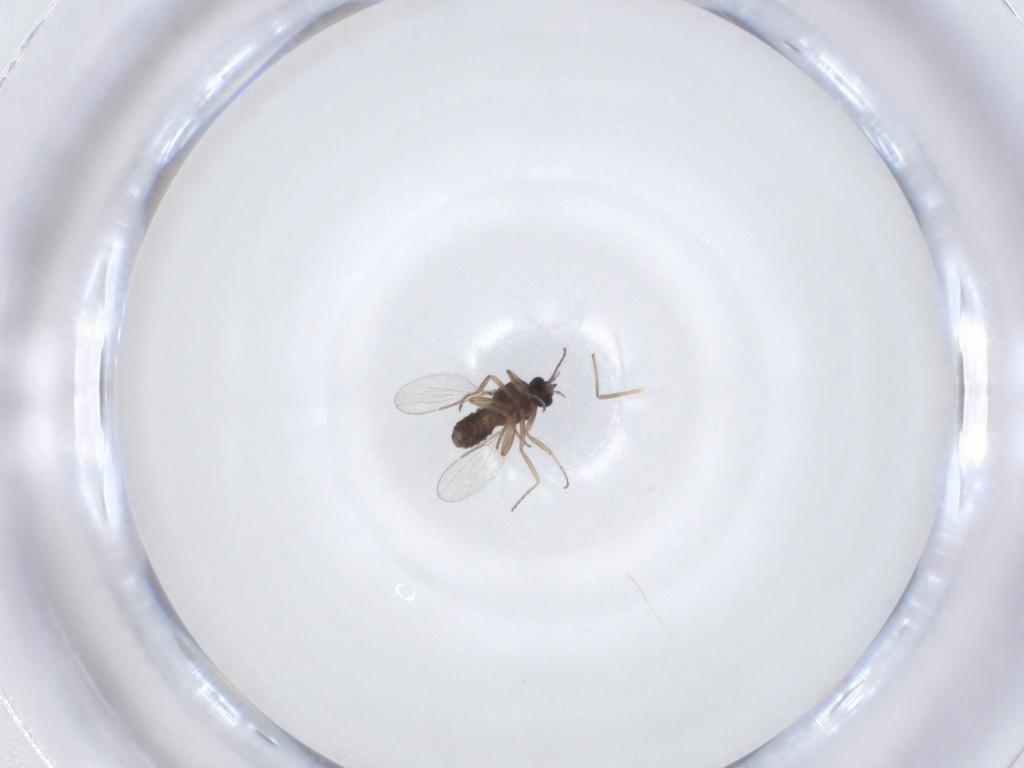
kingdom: Animalia
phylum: Arthropoda
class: Insecta
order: Diptera
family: Ceratopogonidae
